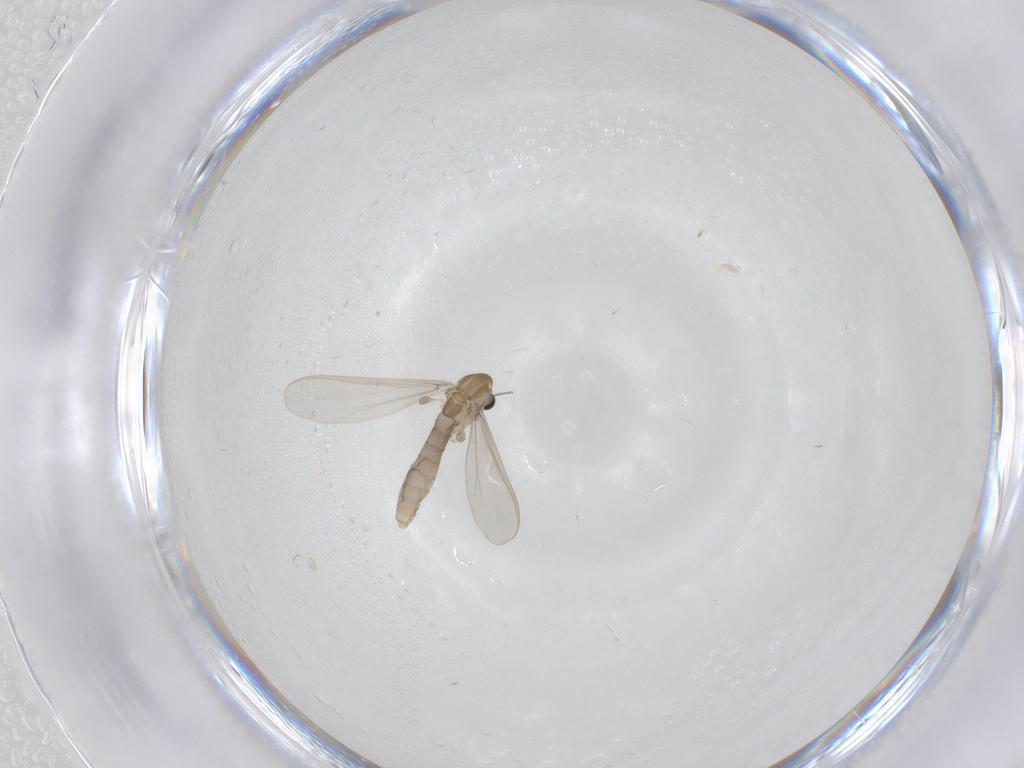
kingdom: Animalia
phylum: Arthropoda
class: Insecta
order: Diptera
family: Chironomidae
